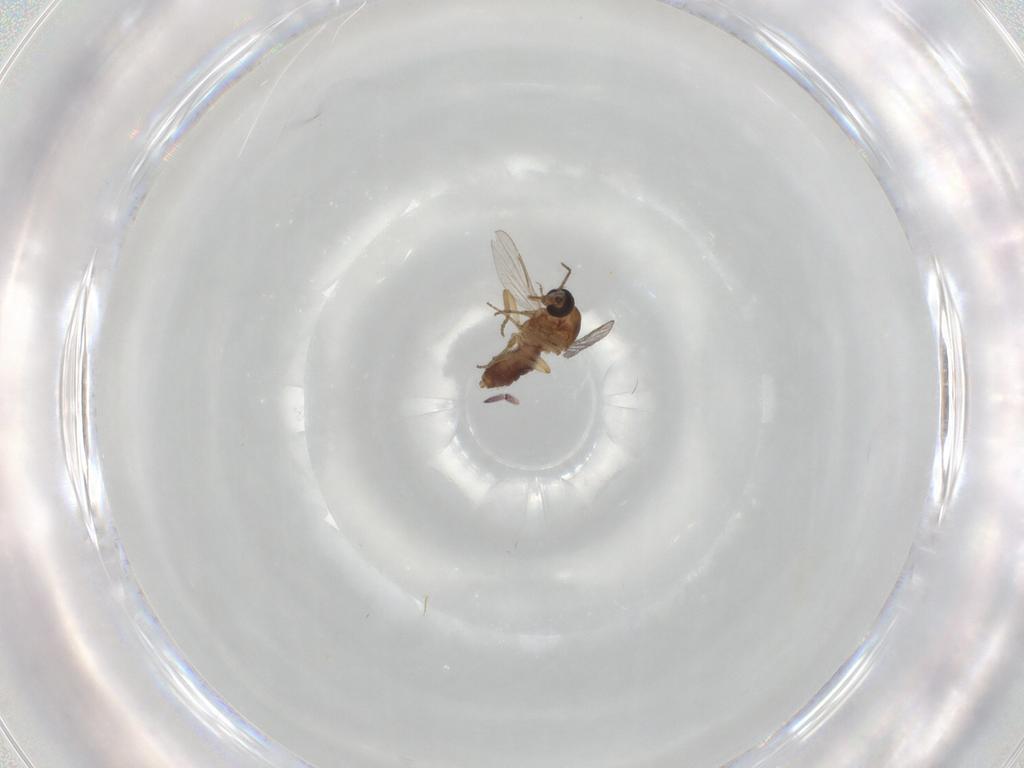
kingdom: Animalia
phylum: Arthropoda
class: Insecta
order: Diptera
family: Ceratopogonidae
